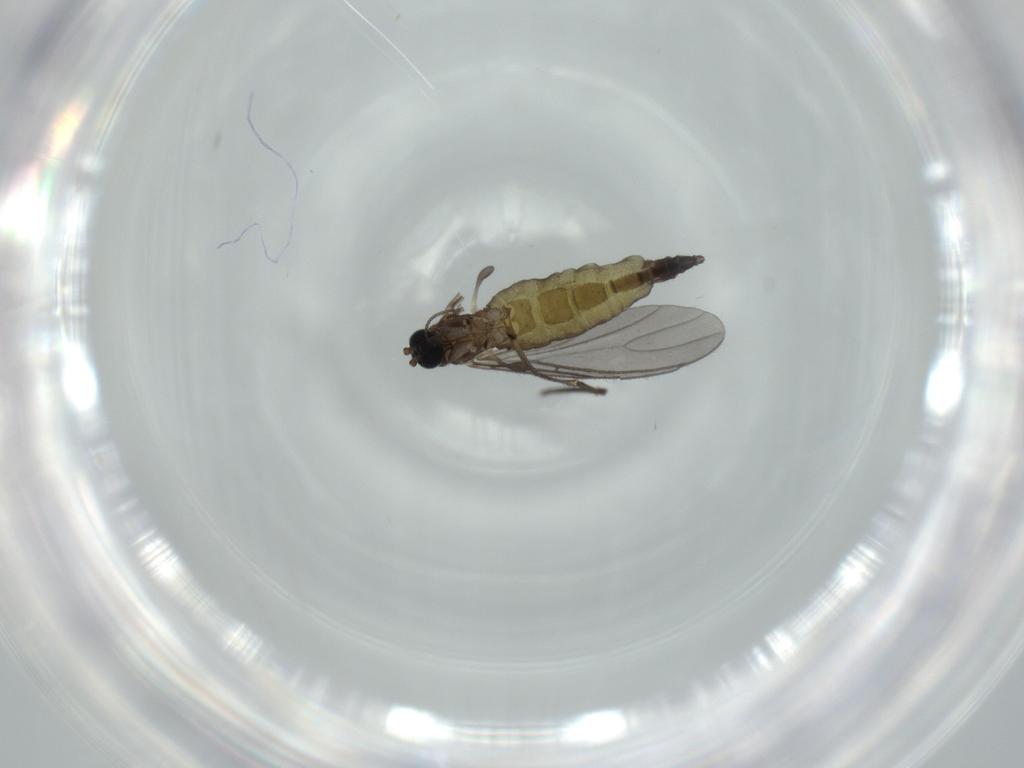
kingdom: Animalia
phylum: Arthropoda
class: Insecta
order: Diptera
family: Sciaridae
